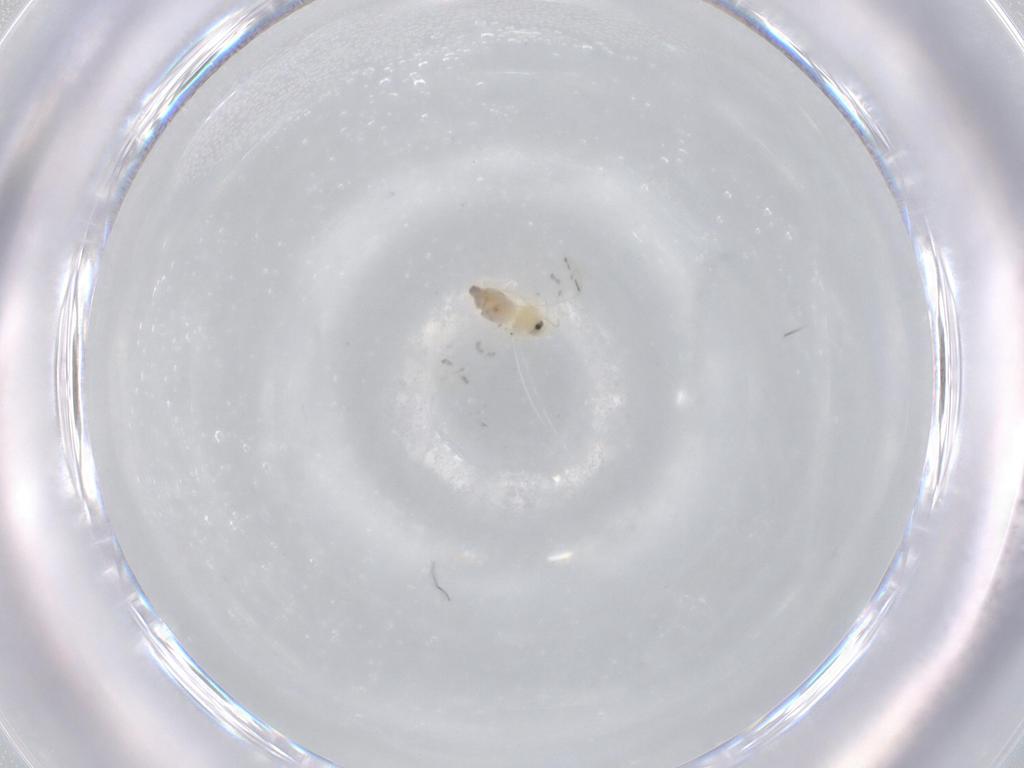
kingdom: Animalia
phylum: Arthropoda
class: Insecta
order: Hemiptera
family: Aleyrodidae
